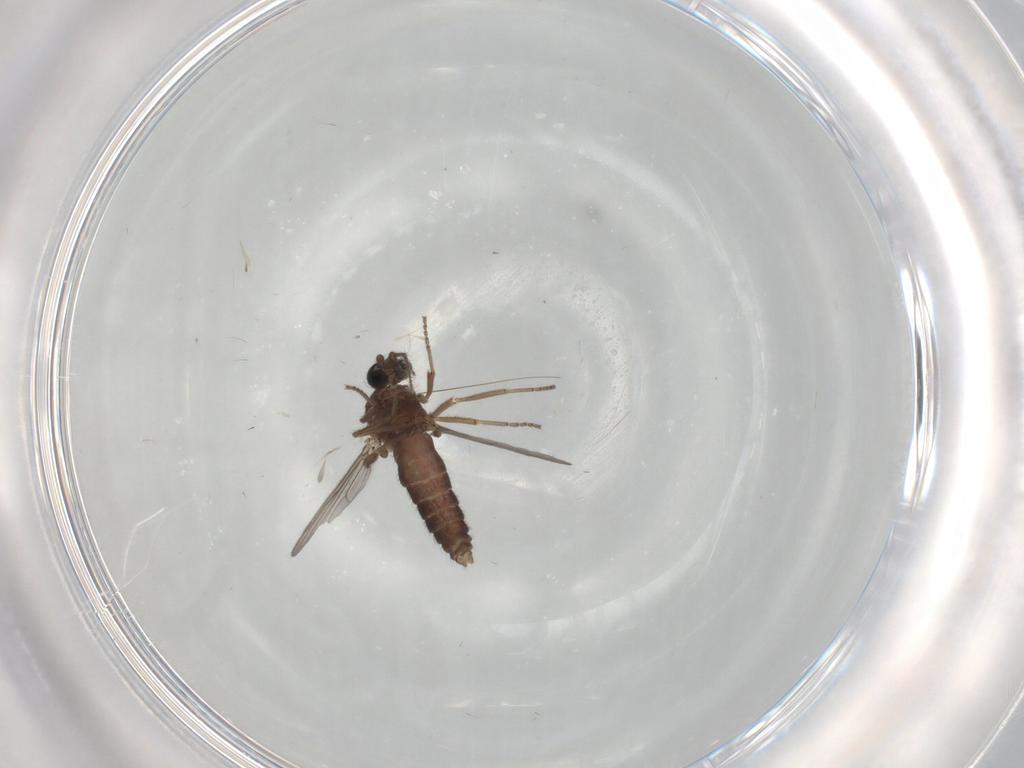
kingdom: Animalia
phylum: Arthropoda
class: Insecta
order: Diptera
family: Ceratopogonidae
